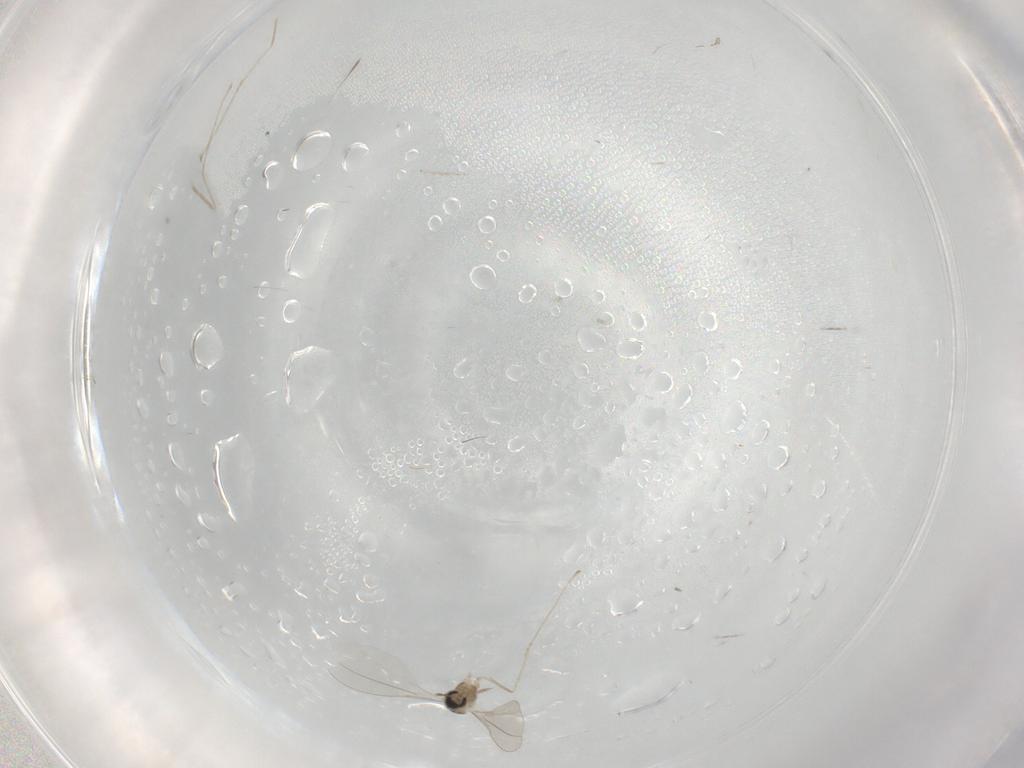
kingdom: Animalia
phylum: Arthropoda
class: Insecta
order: Diptera
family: Cecidomyiidae
